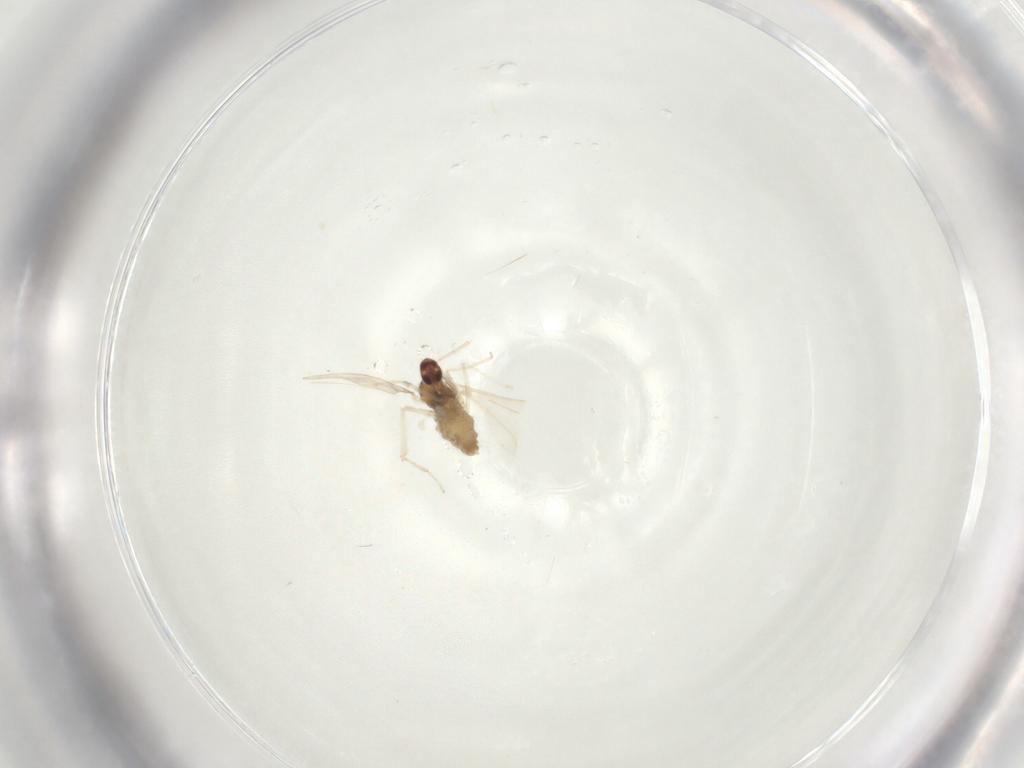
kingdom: Animalia
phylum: Arthropoda
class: Insecta
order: Diptera
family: Cecidomyiidae
